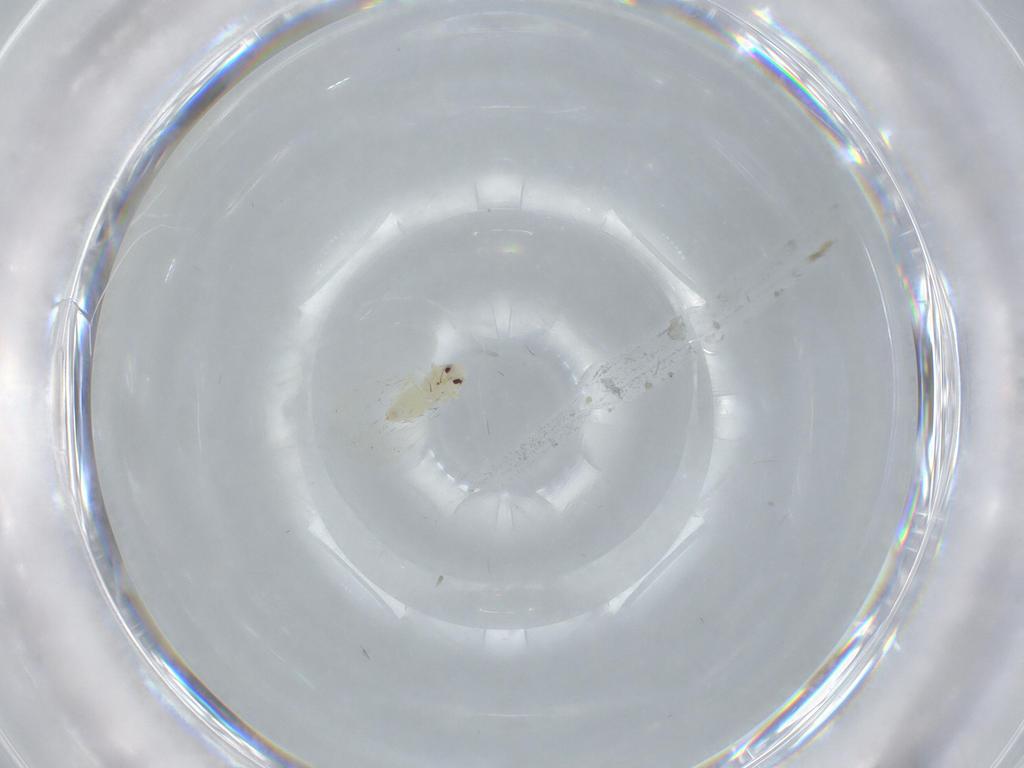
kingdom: Animalia
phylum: Arthropoda
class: Insecta
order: Hemiptera
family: Aleyrodidae
